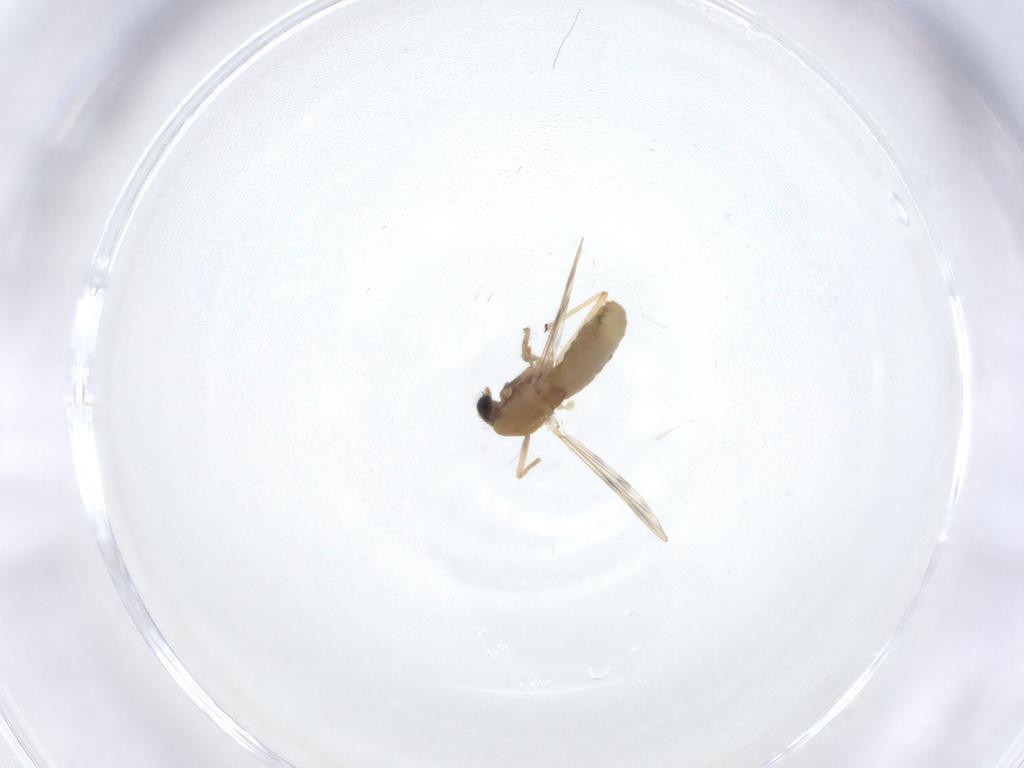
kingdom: Animalia
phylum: Arthropoda
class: Insecta
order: Diptera
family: Chironomidae
